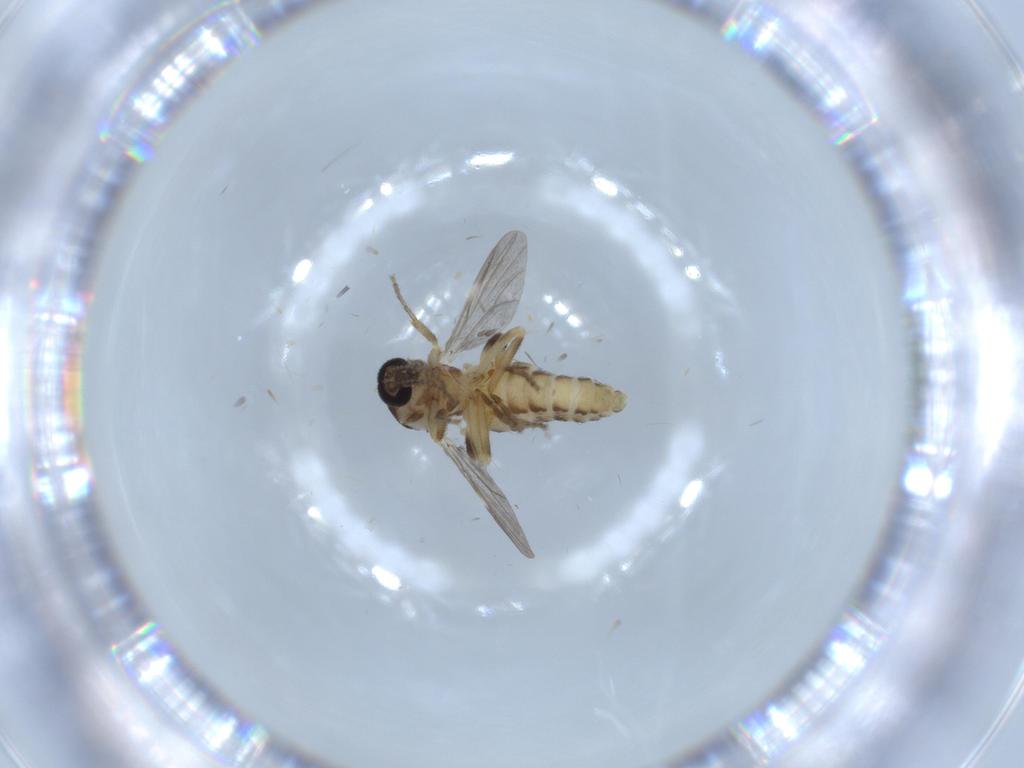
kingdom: Animalia
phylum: Arthropoda
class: Insecta
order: Diptera
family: Ceratopogonidae
